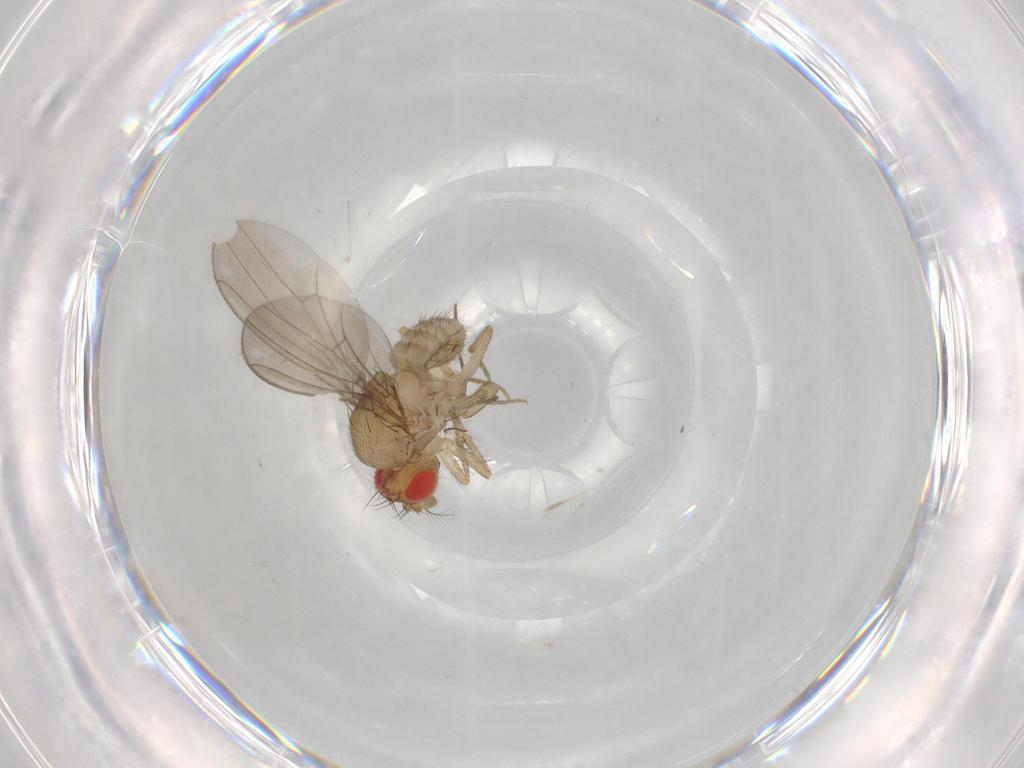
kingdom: Animalia
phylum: Arthropoda
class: Insecta
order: Diptera
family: Drosophilidae
